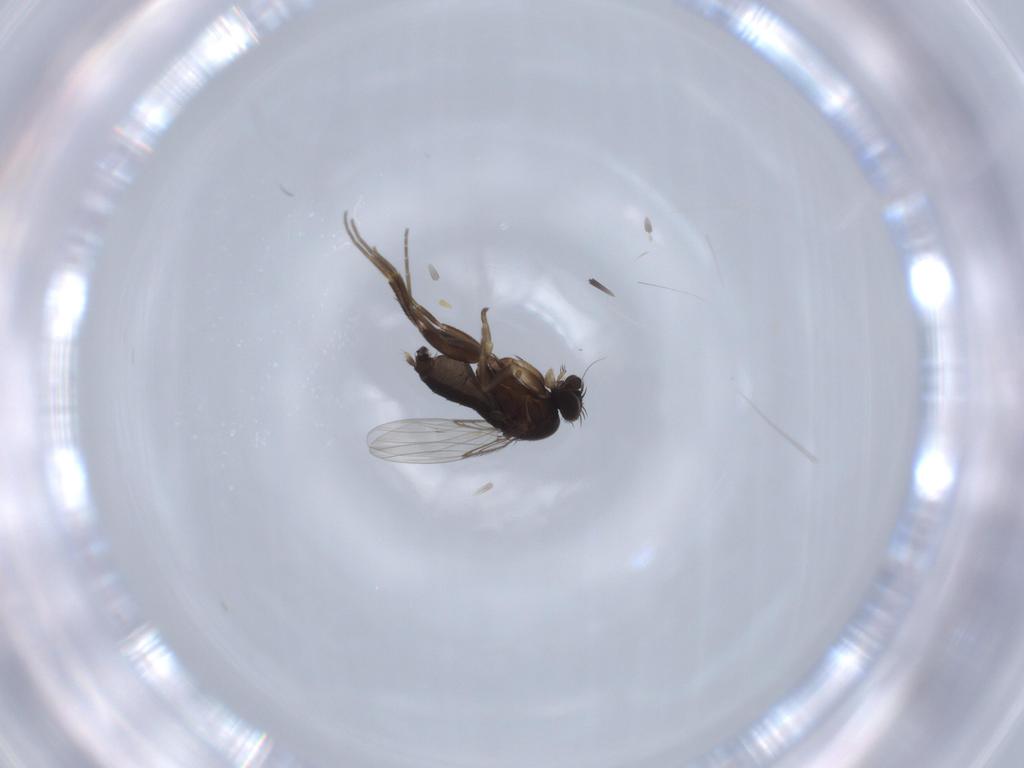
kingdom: Animalia
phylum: Arthropoda
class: Insecta
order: Diptera
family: Phoridae
